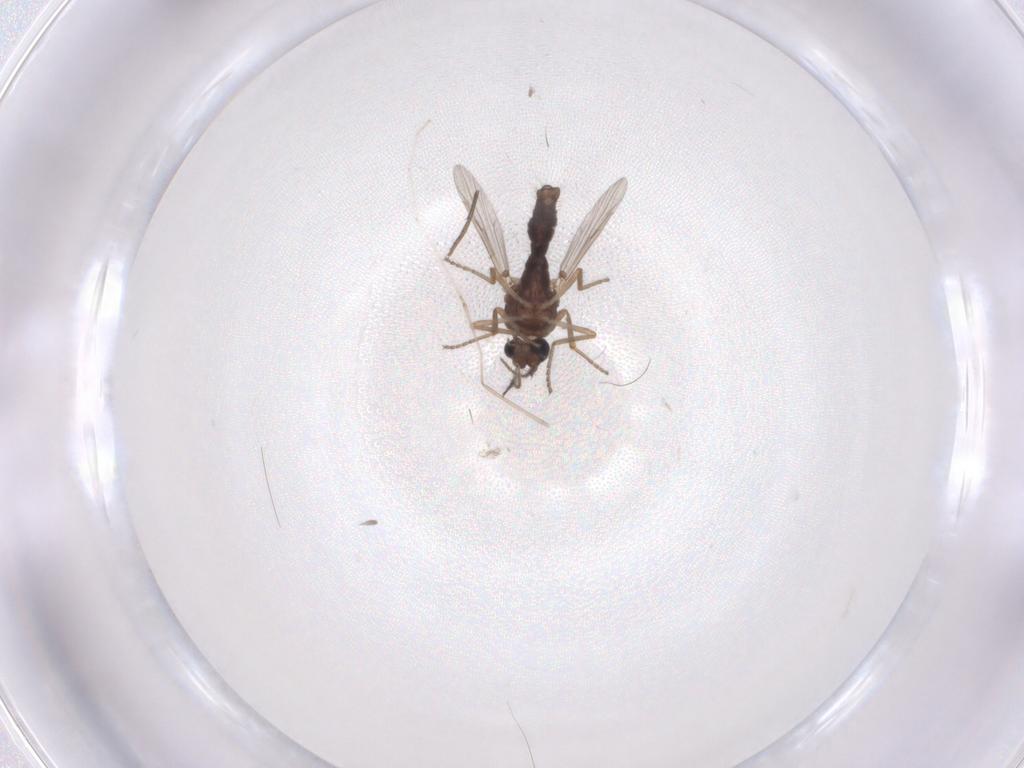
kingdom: Animalia
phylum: Arthropoda
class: Insecta
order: Diptera
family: Ceratopogonidae
